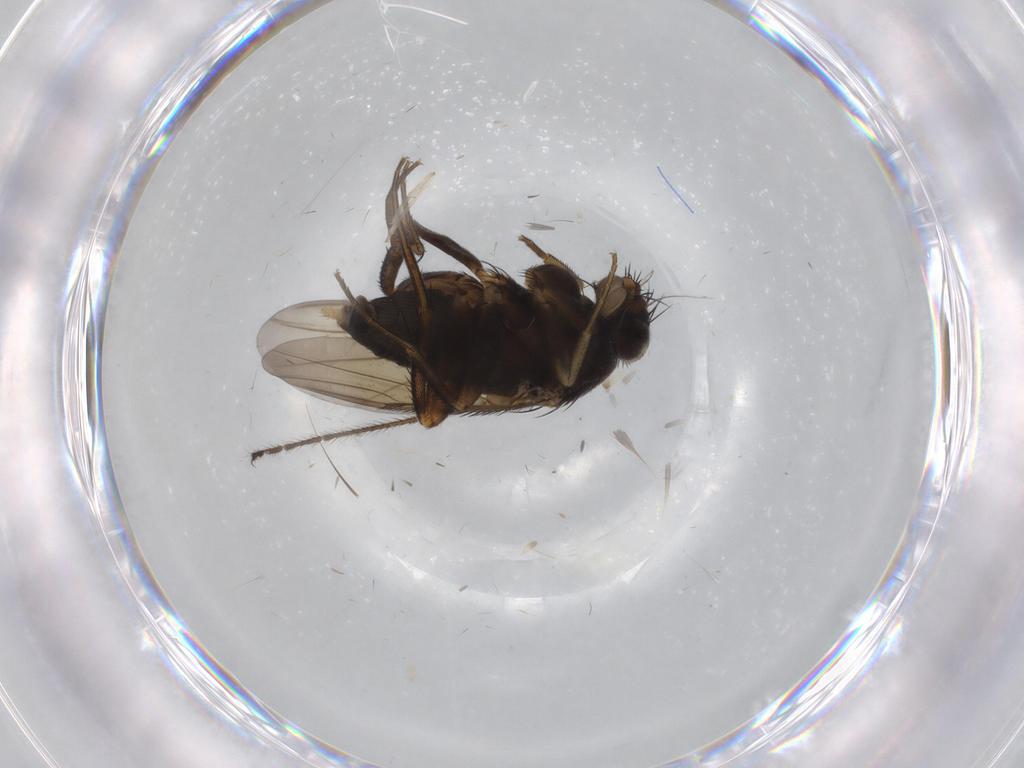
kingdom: Animalia
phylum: Arthropoda
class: Insecta
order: Diptera
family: Phoridae
